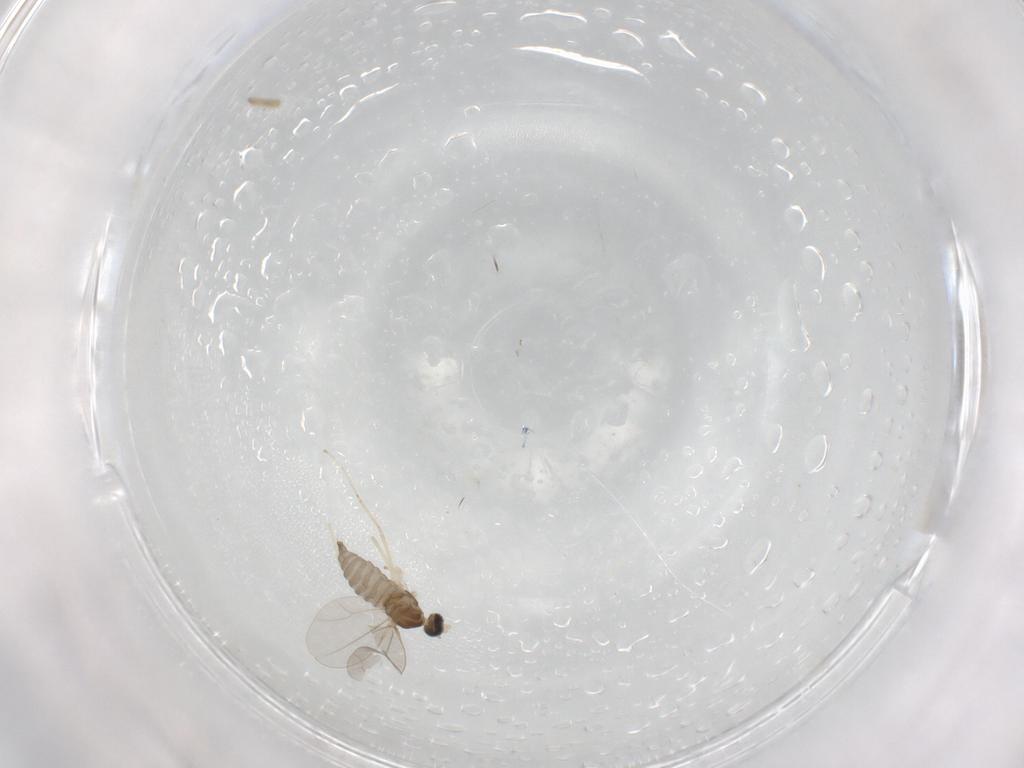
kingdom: Animalia
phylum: Arthropoda
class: Insecta
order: Diptera
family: Cecidomyiidae
